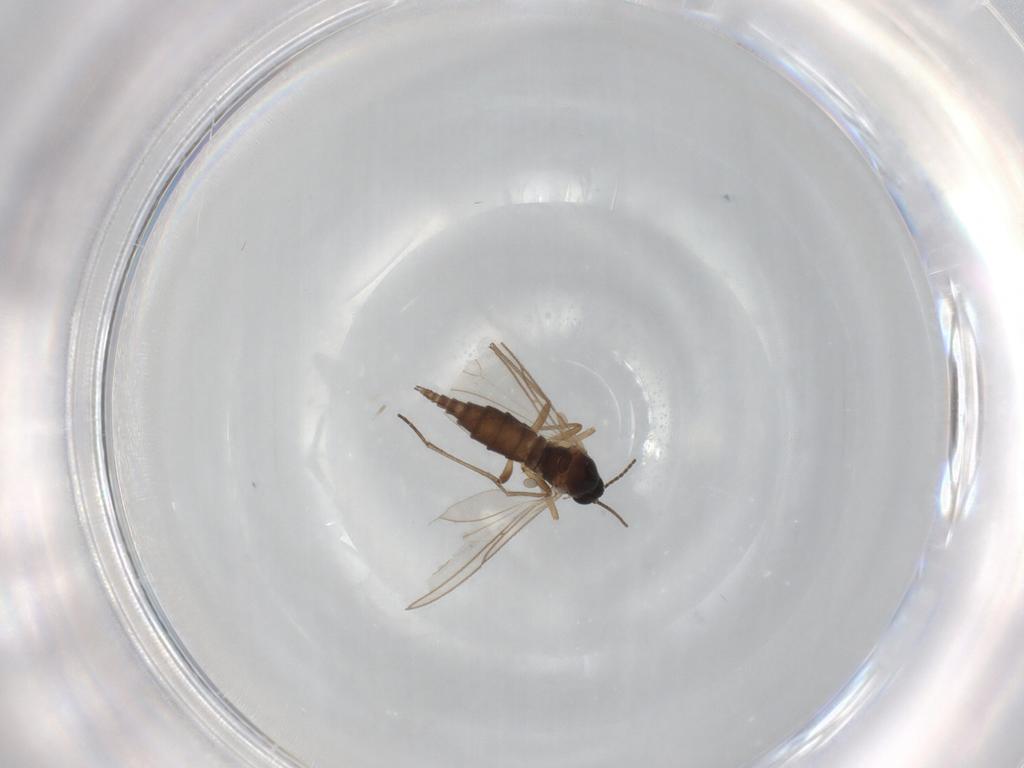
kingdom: Animalia
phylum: Arthropoda
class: Insecta
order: Diptera
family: Sciaridae
